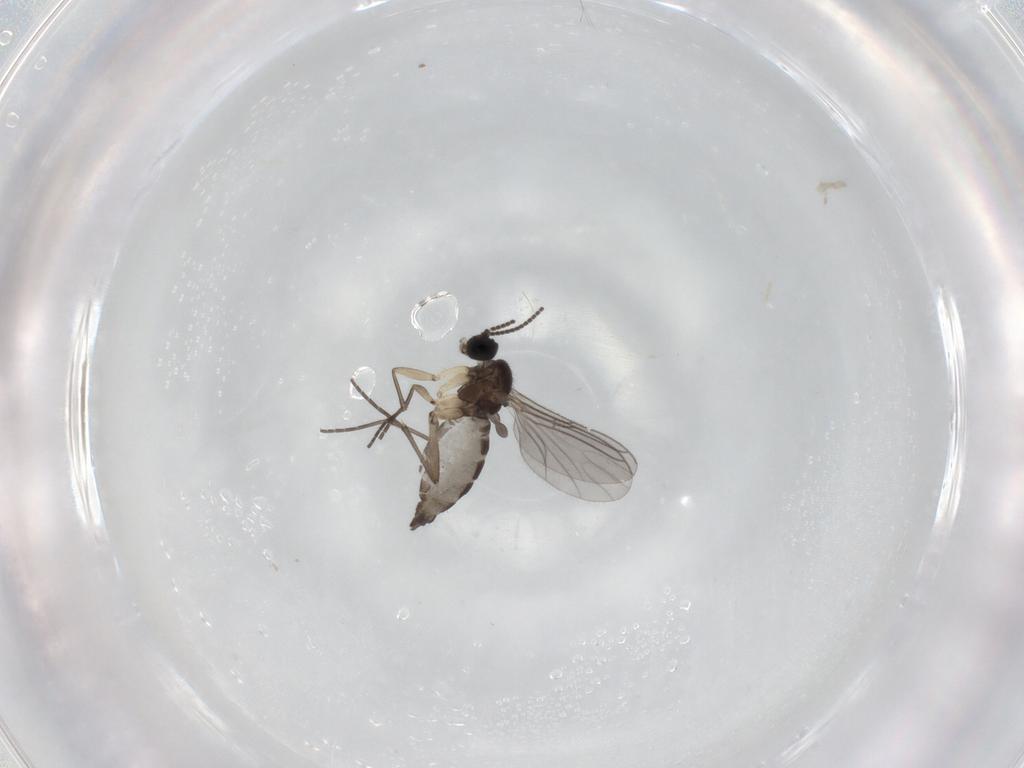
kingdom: Animalia
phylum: Arthropoda
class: Insecta
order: Diptera
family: Sciaridae
